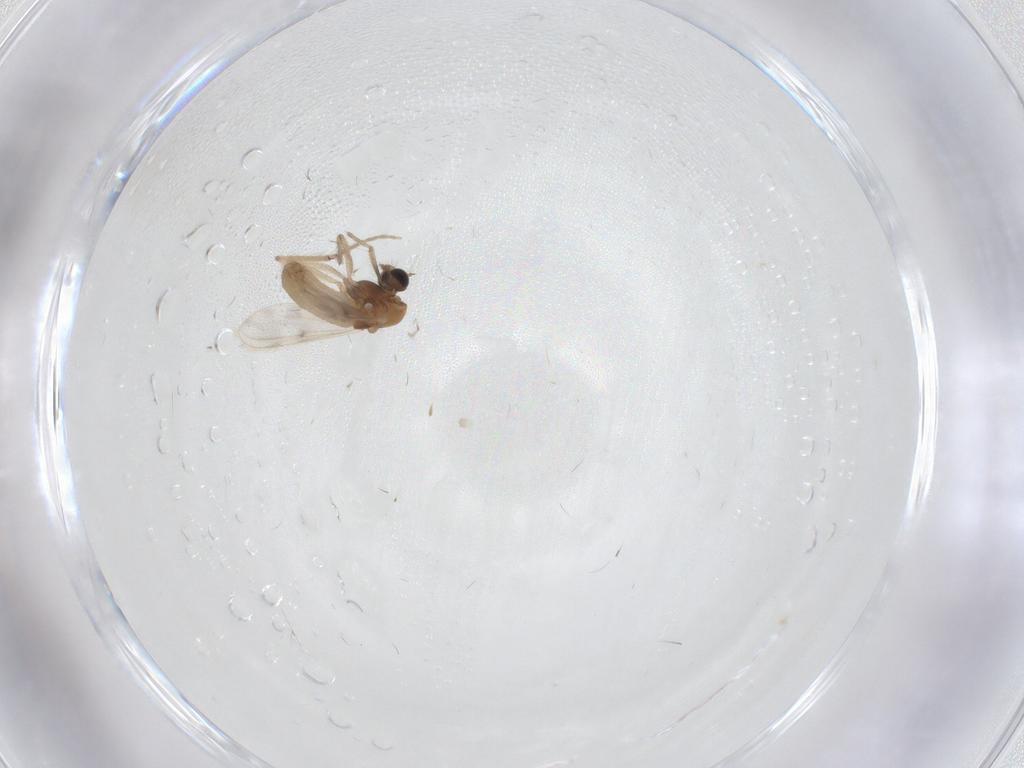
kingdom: Animalia
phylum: Arthropoda
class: Insecta
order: Diptera
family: Chironomidae
